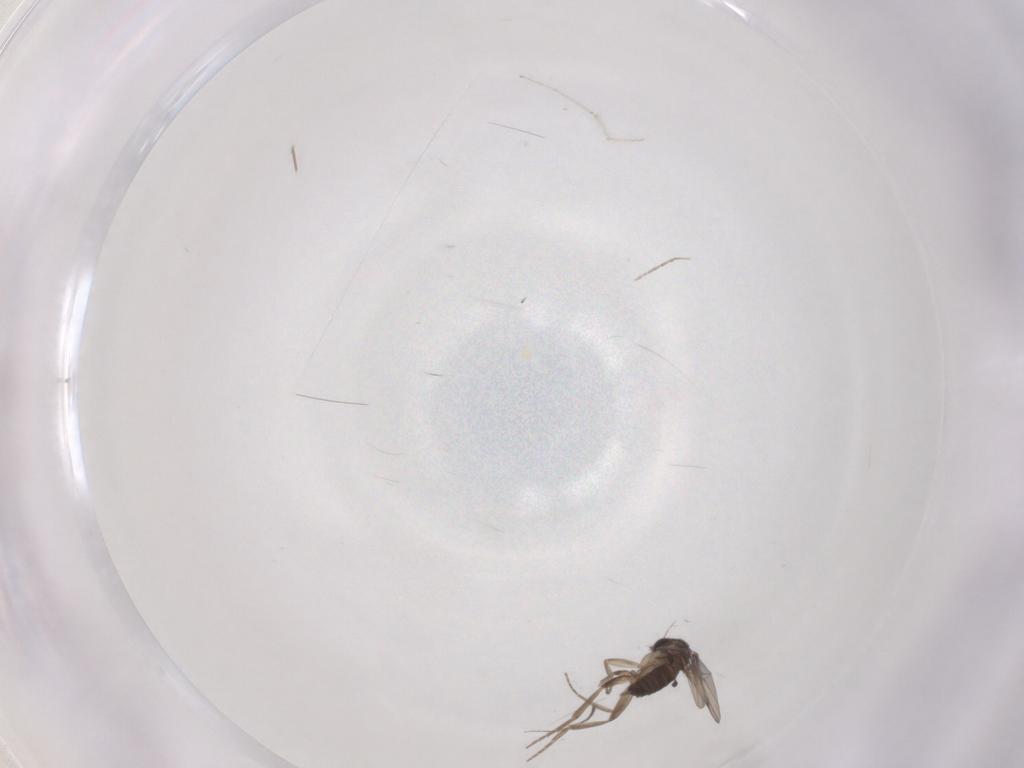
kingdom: Animalia
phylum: Arthropoda
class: Insecta
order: Diptera
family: Phoridae
